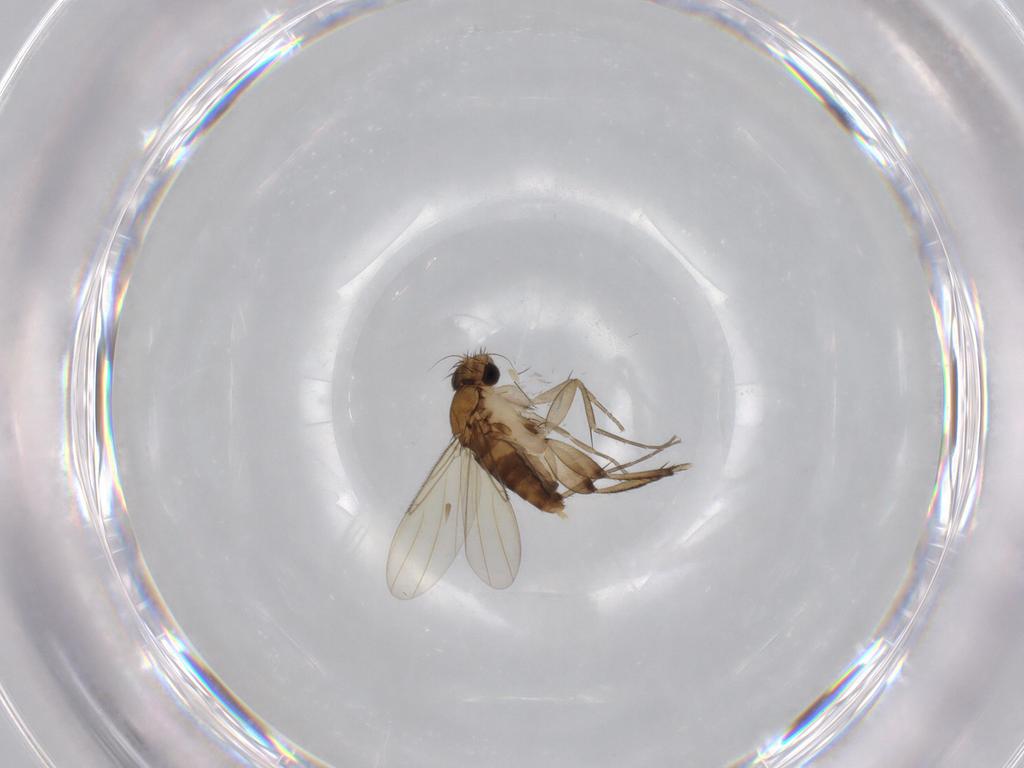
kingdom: Animalia
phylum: Arthropoda
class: Insecta
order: Diptera
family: Phoridae
